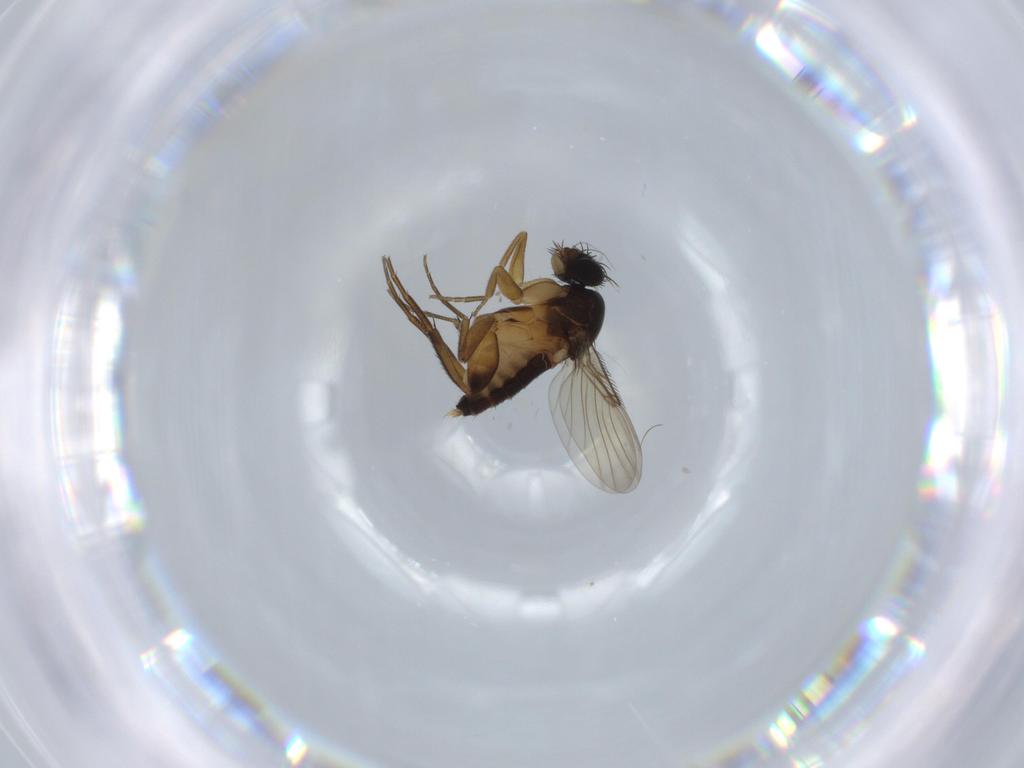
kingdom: Animalia
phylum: Arthropoda
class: Insecta
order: Diptera
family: Phoridae
